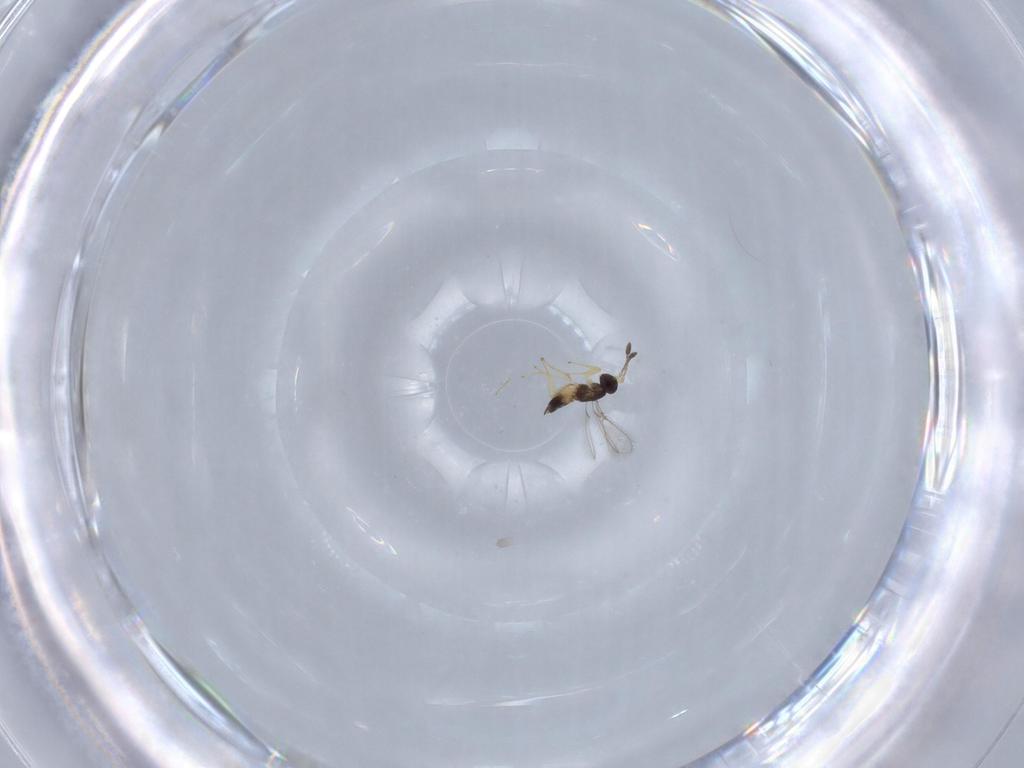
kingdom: Animalia
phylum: Arthropoda
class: Insecta
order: Hymenoptera
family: Mymaridae
